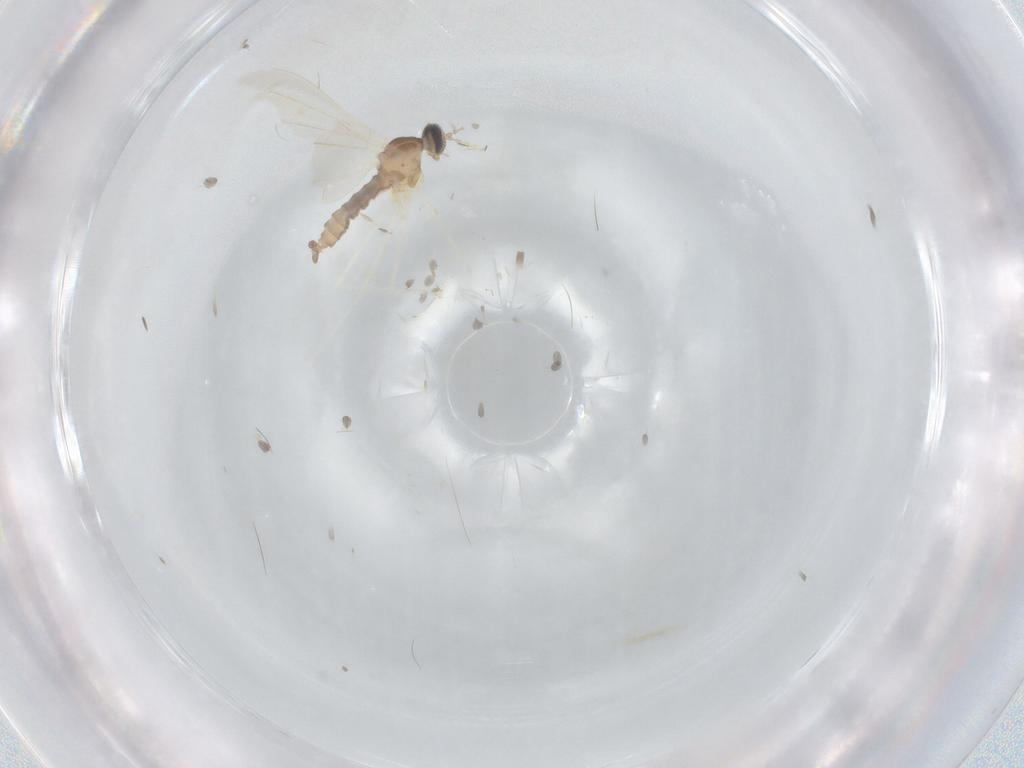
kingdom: Animalia
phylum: Arthropoda
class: Insecta
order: Diptera
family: Cecidomyiidae
